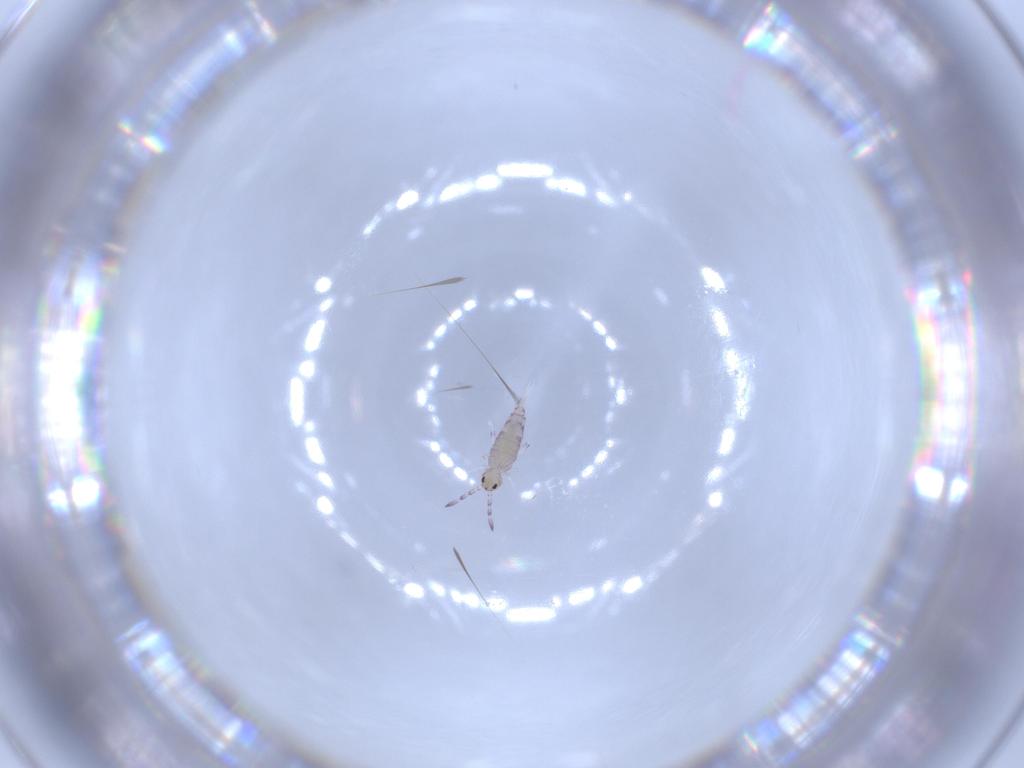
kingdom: Animalia
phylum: Arthropoda
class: Collembola
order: Entomobryomorpha
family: Entomobryidae
